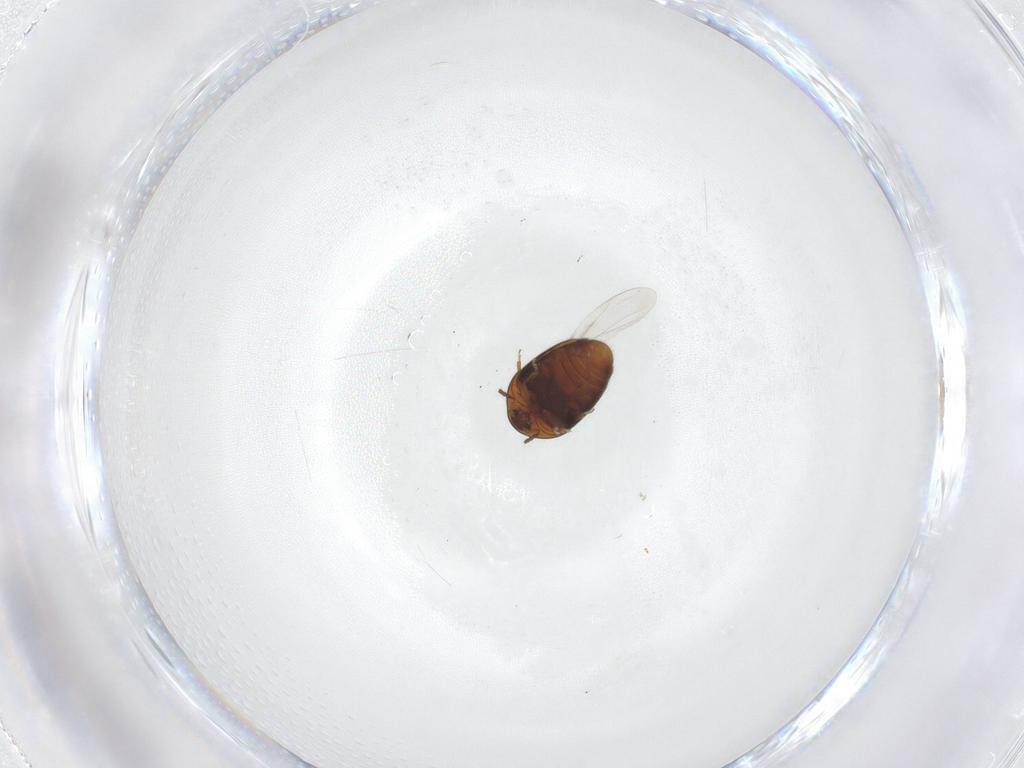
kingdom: Animalia
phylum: Arthropoda
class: Insecta
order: Coleoptera
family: Corylophidae
